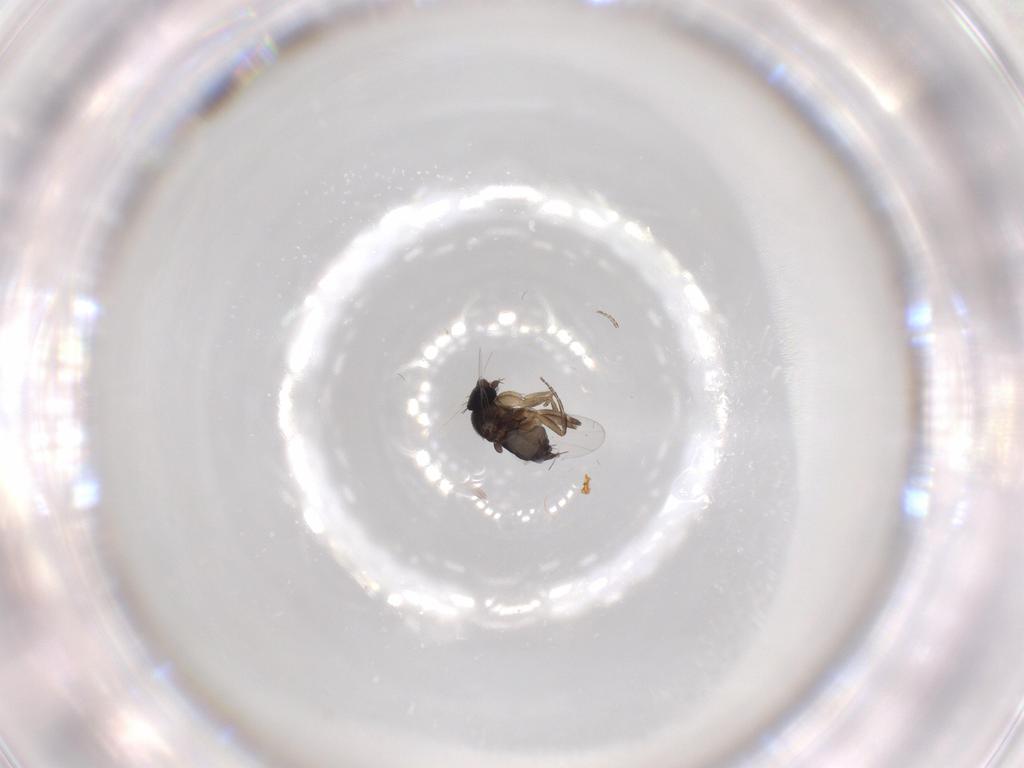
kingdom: Animalia
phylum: Arthropoda
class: Insecta
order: Diptera
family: Muscidae
